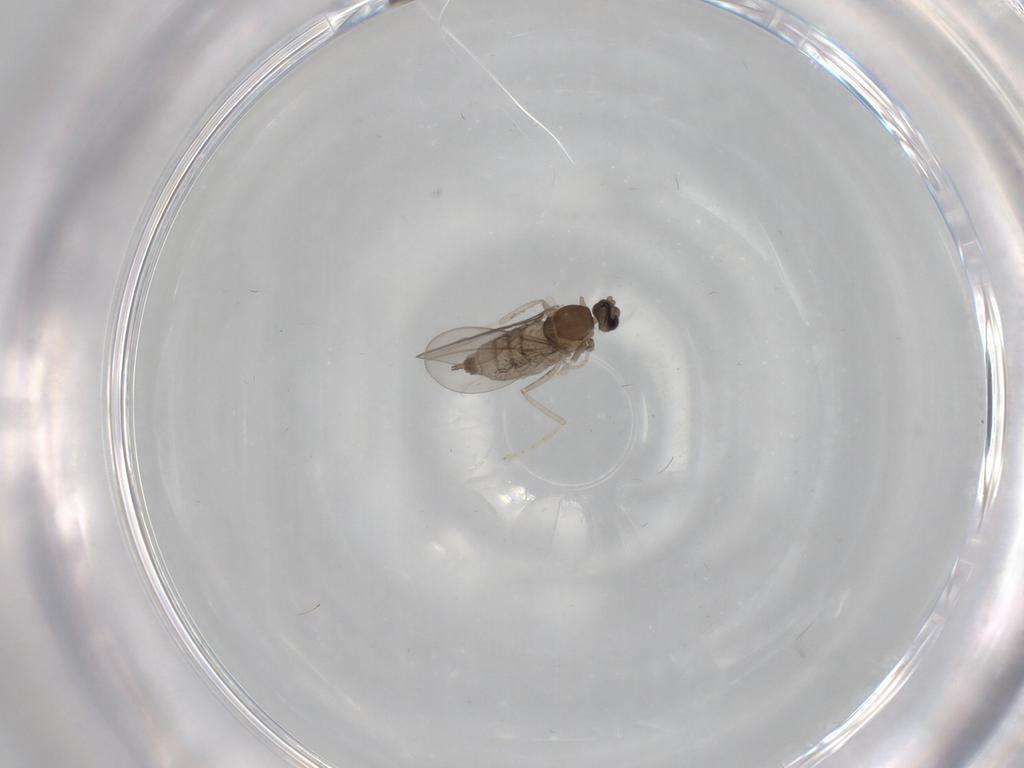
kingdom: Animalia
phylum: Arthropoda
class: Insecta
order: Diptera
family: Cecidomyiidae
